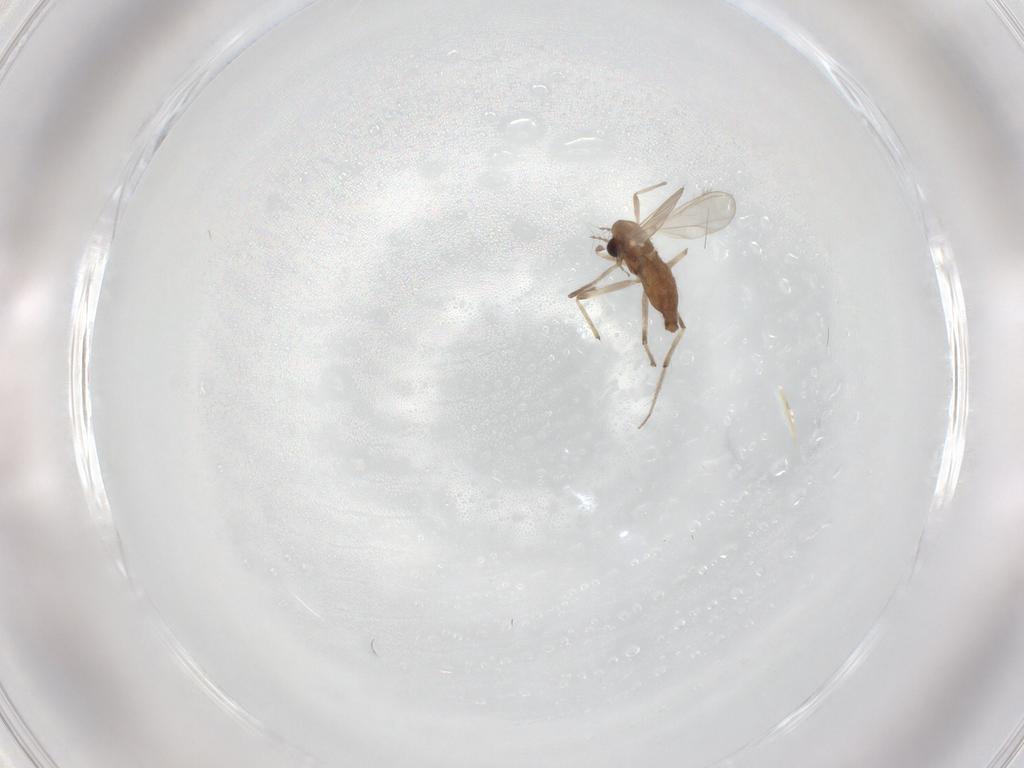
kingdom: Animalia
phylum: Arthropoda
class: Insecta
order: Diptera
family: Chironomidae
